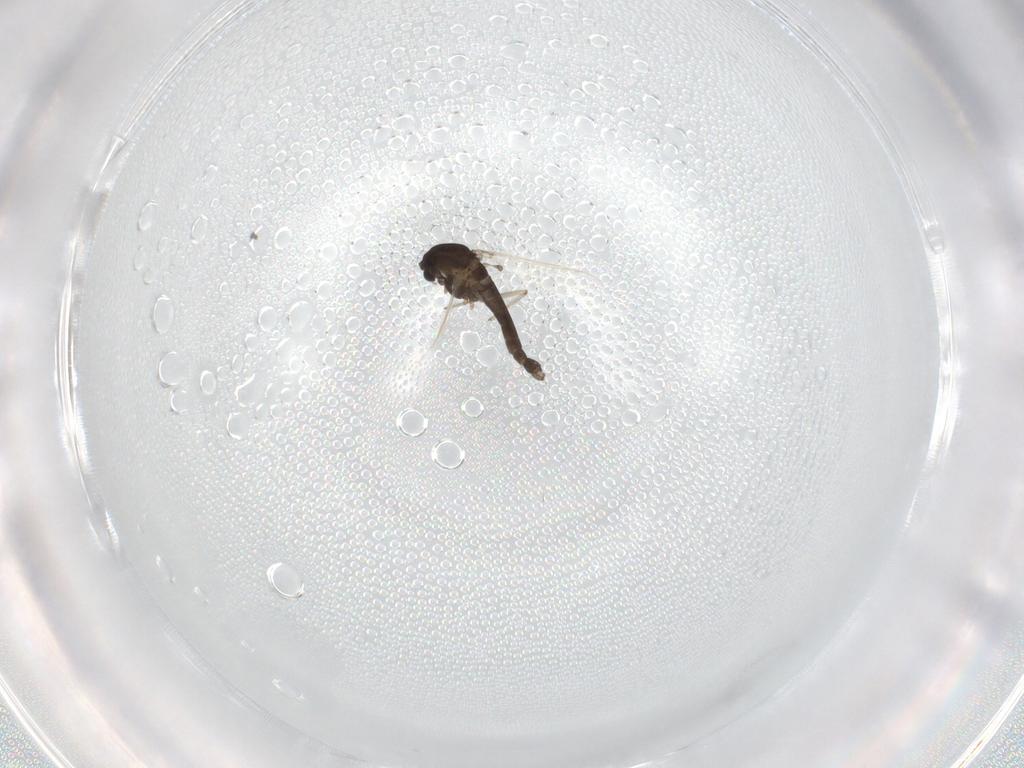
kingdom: Animalia
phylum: Arthropoda
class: Insecta
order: Diptera
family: Chironomidae
